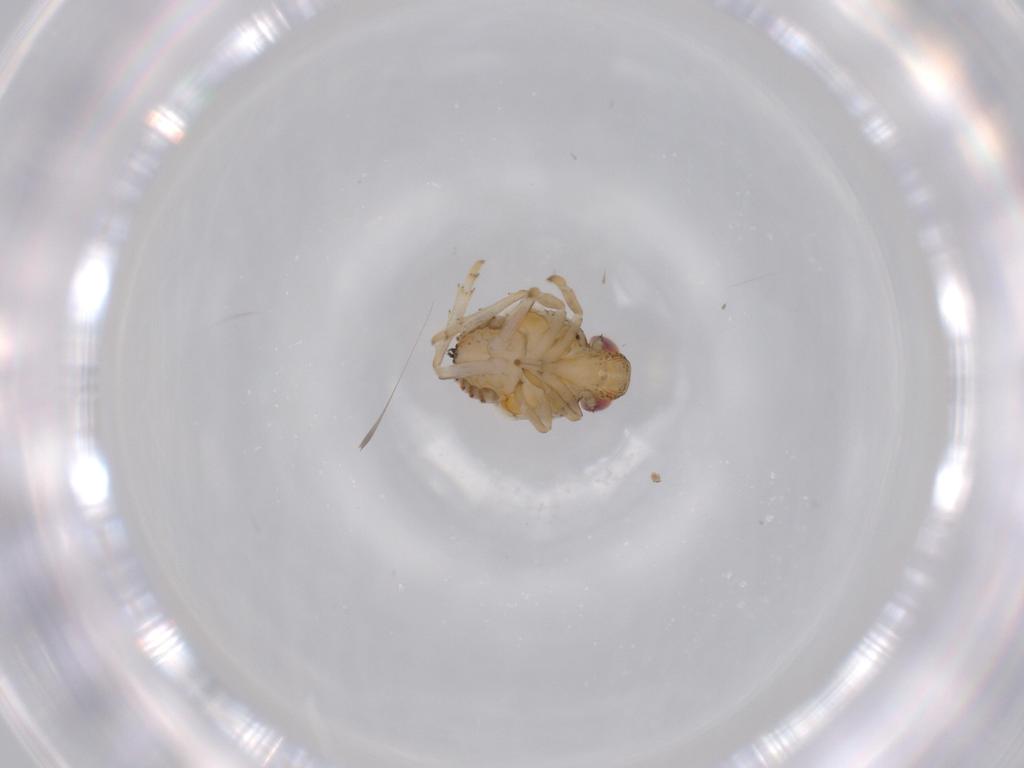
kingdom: Animalia
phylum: Arthropoda
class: Insecta
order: Hemiptera
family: Issidae
